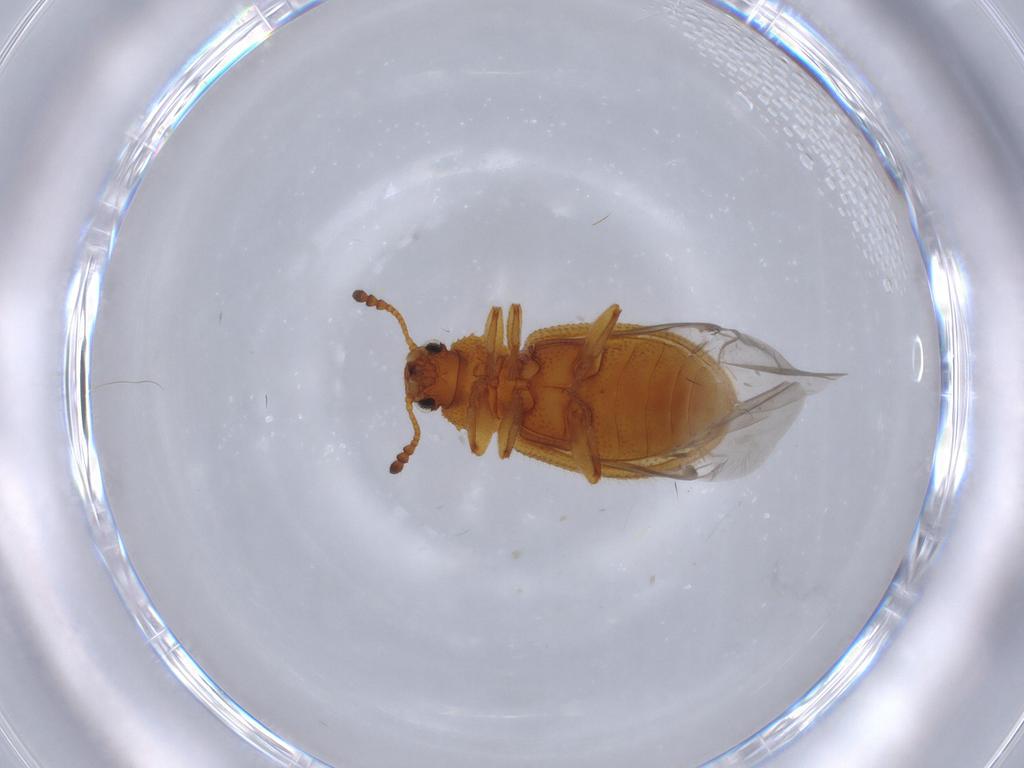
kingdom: Animalia
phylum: Arthropoda
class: Insecta
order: Coleoptera
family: Tenebrionidae
